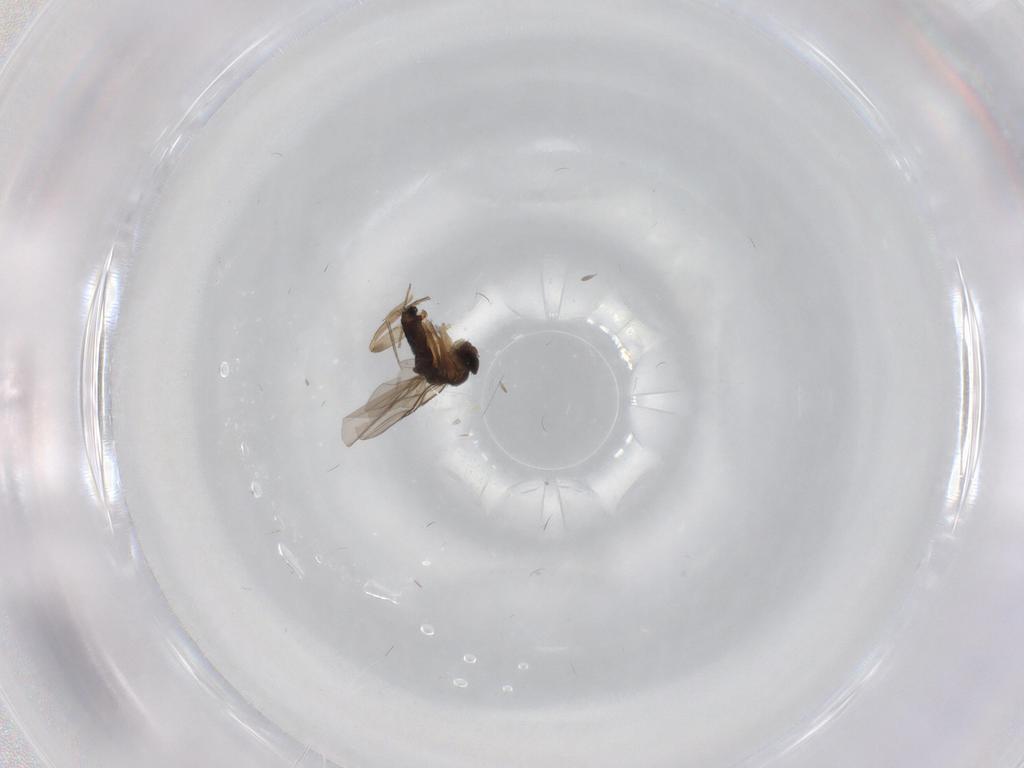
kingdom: Animalia
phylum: Arthropoda
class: Insecta
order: Diptera
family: Phoridae
